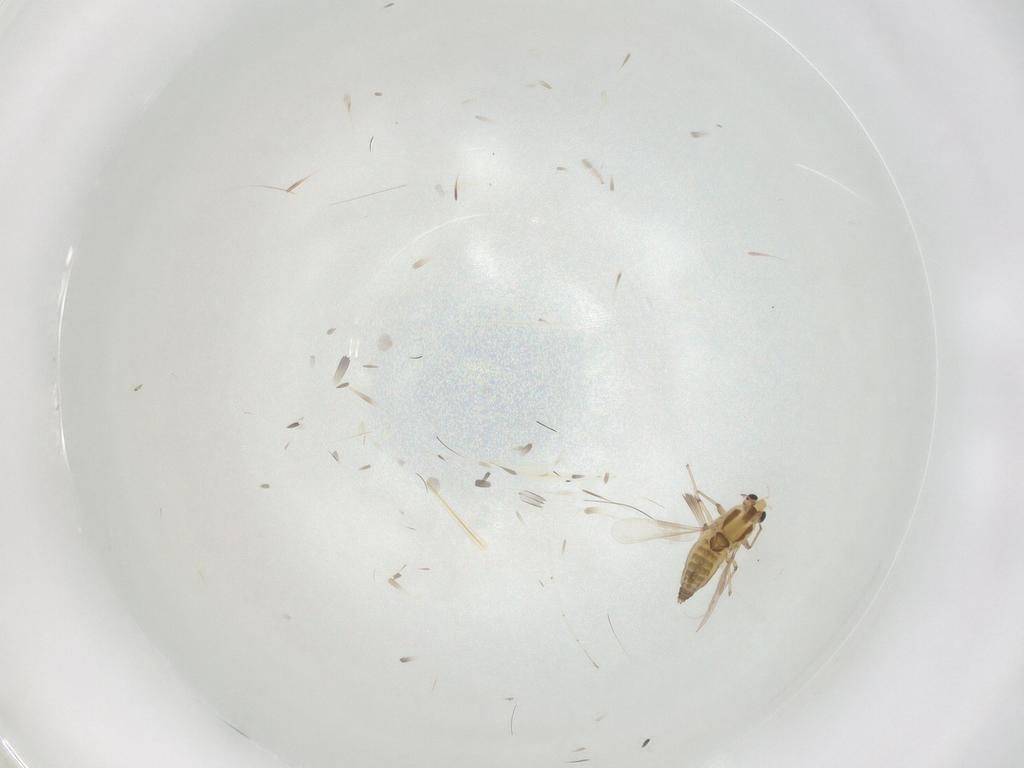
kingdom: Animalia
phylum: Arthropoda
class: Insecta
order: Diptera
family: Chironomidae
